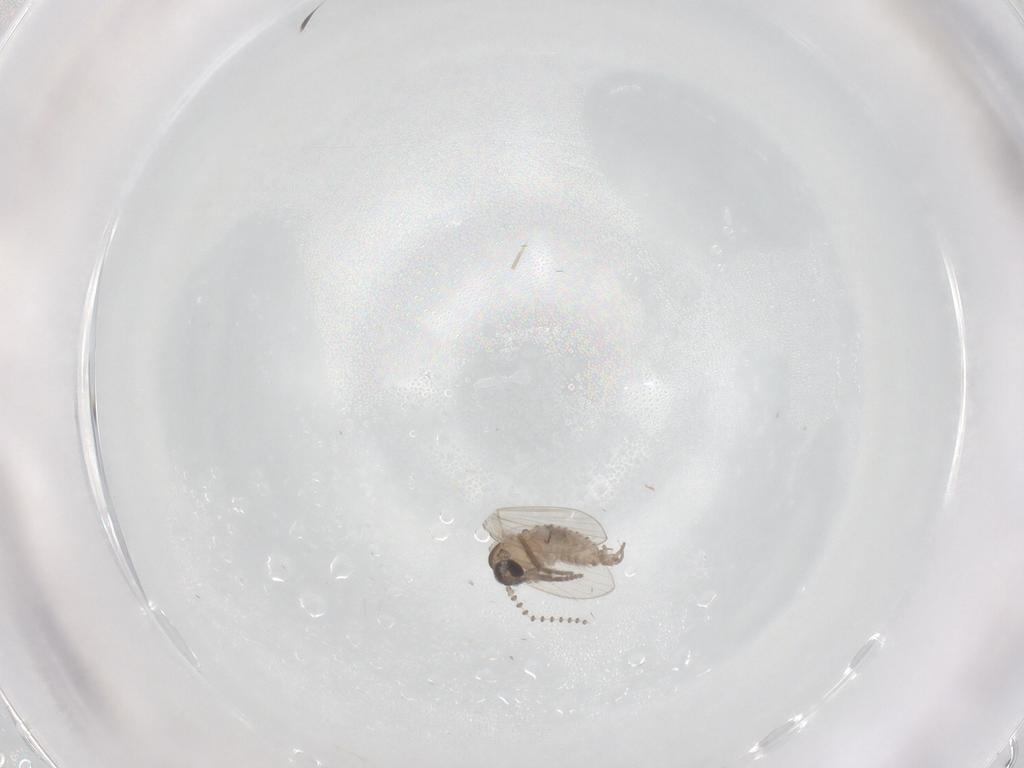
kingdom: Animalia
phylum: Arthropoda
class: Insecta
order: Diptera
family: Psychodidae
